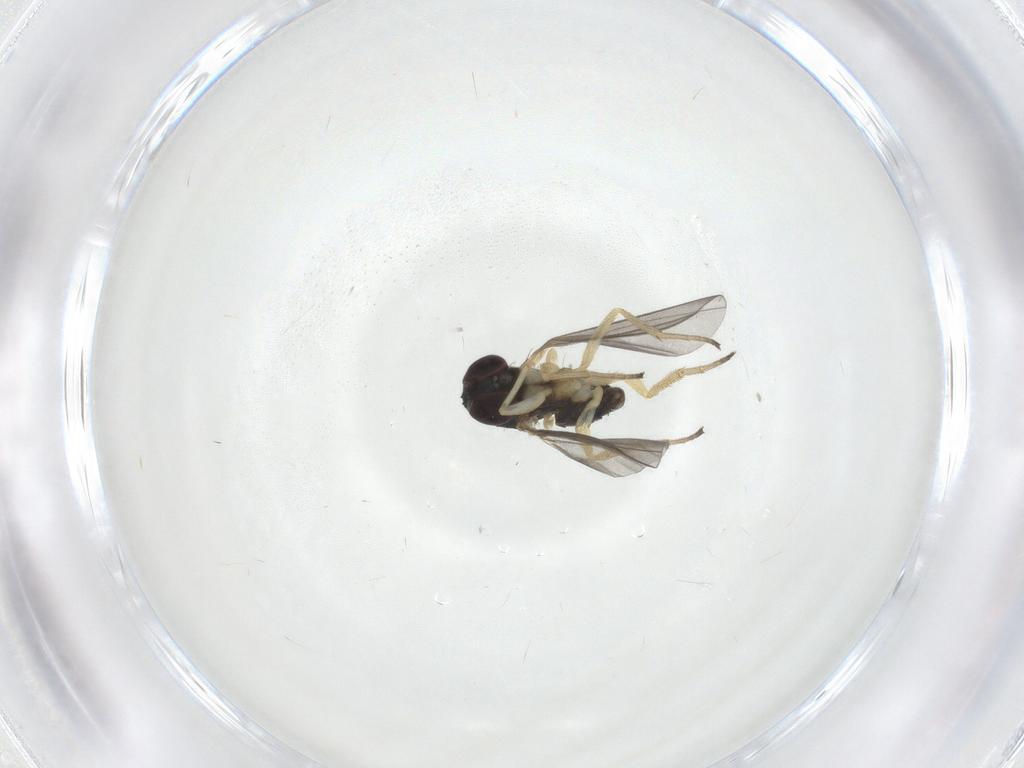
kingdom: Animalia
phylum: Arthropoda
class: Insecta
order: Diptera
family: Dolichopodidae
